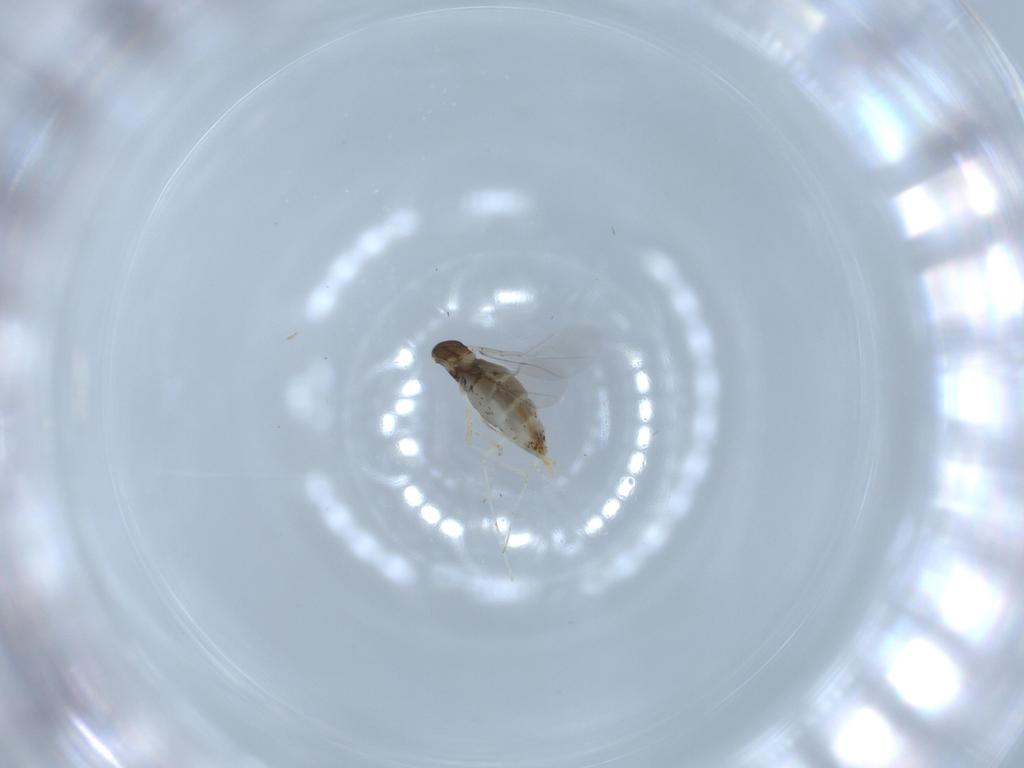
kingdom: Animalia
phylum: Arthropoda
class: Insecta
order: Diptera
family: Cecidomyiidae
